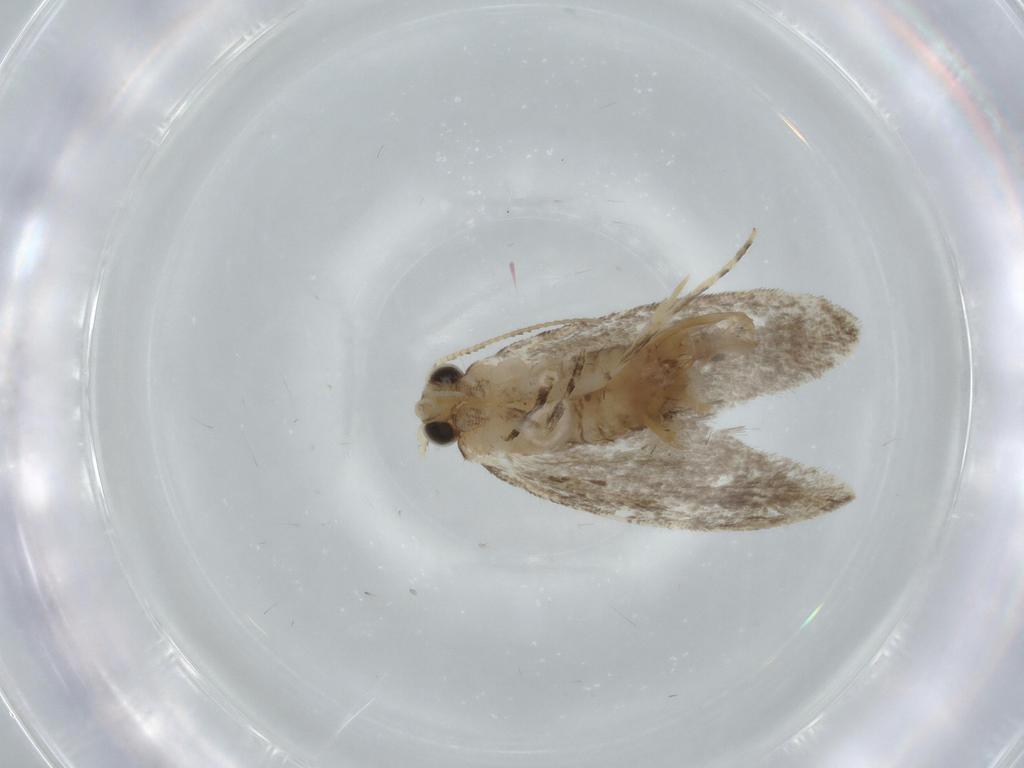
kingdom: Animalia
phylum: Arthropoda
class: Insecta
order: Lepidoptera
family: Tineidae
